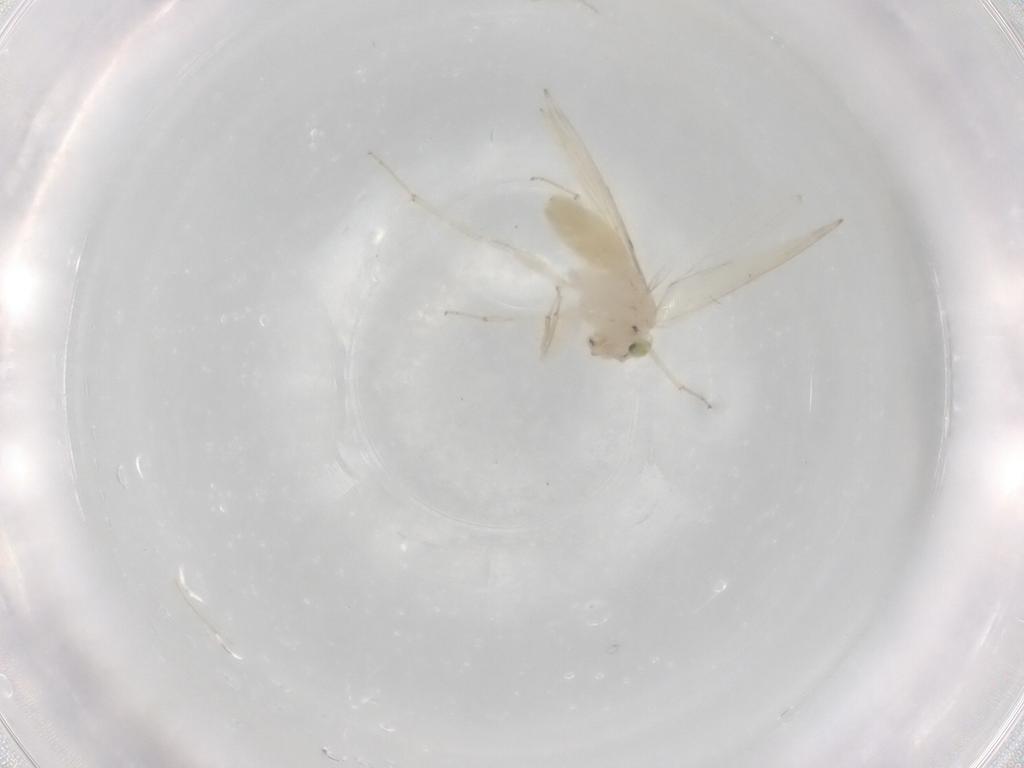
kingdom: Animalia
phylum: Arthropoda
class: Insecta
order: Psocodea
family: Lepidopsocidae
